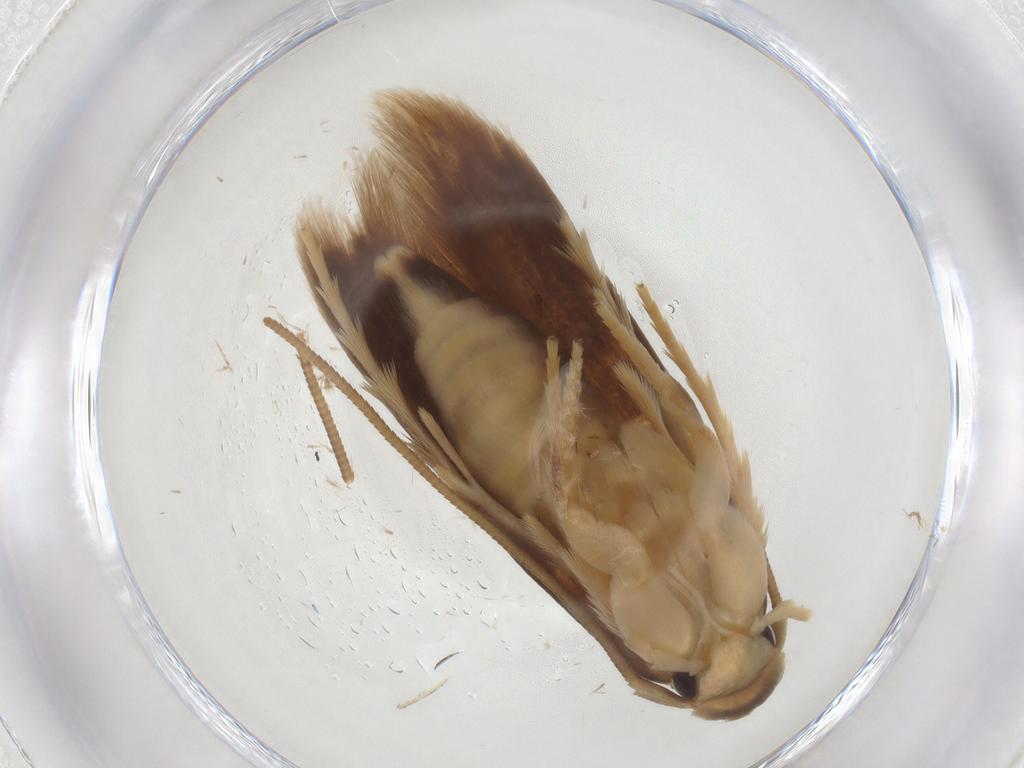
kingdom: Animalia
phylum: Arthropoda
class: Insecta
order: Lepidoptera
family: Tineidae
